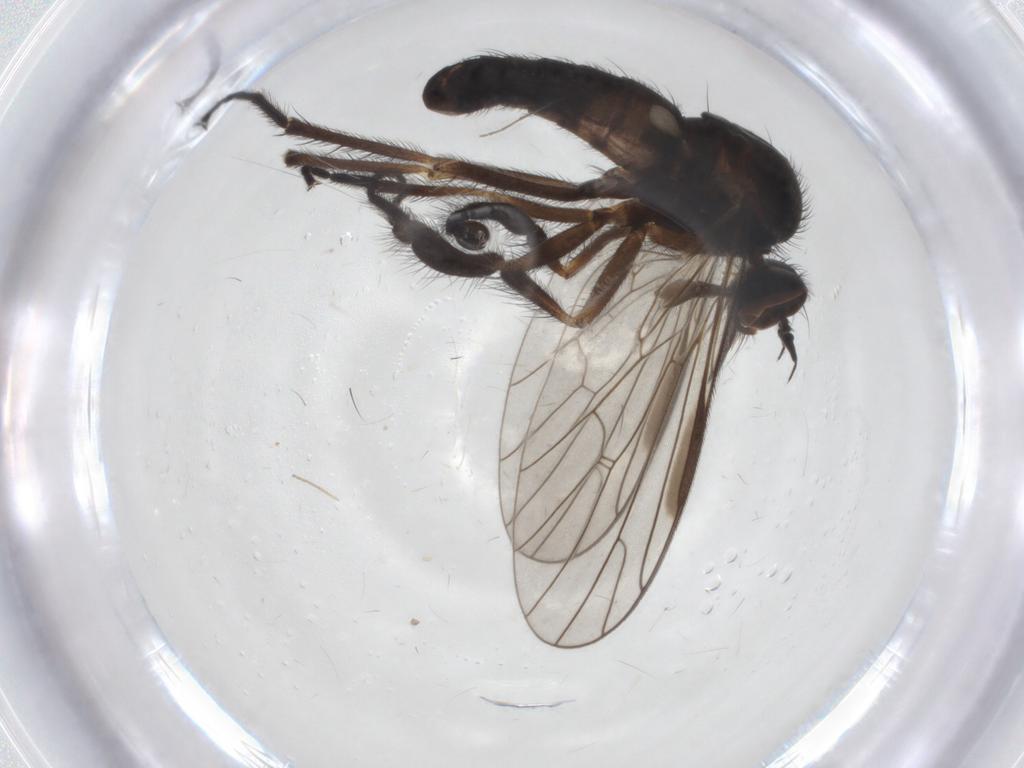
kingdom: Animalia
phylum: Arthropoda
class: Insecta
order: Diptera
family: Empididae
